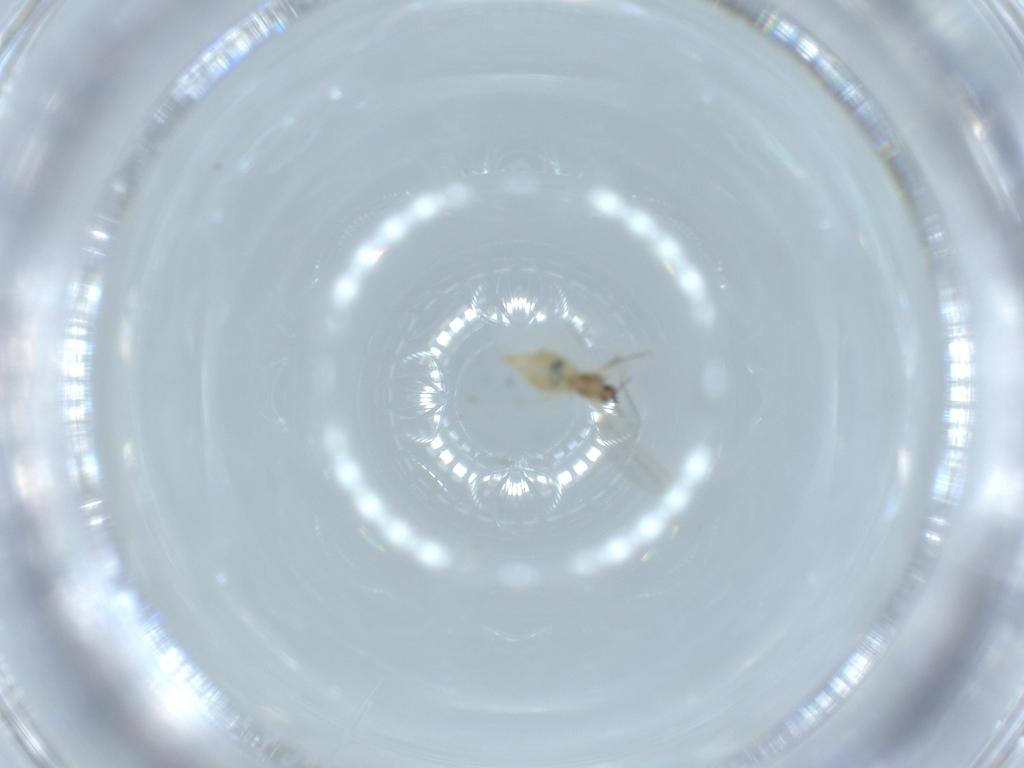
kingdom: Animalia
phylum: Arthropoda
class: Insecta
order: Diptera
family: Cecidomyiidae
